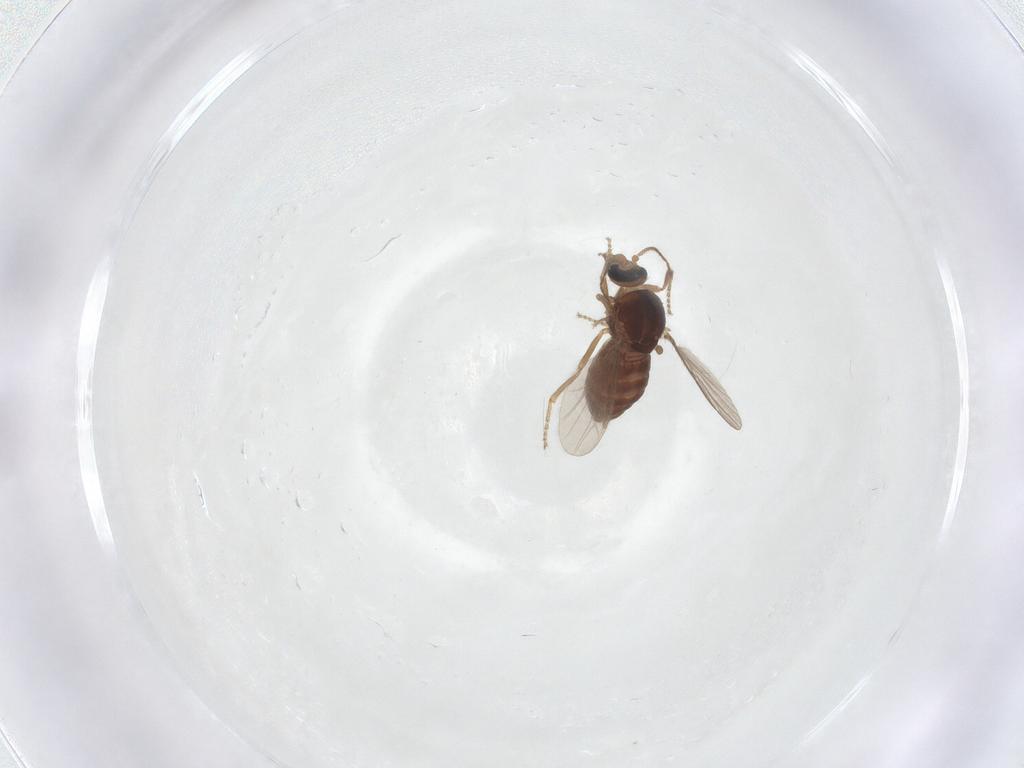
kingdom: Animalia
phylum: Arthropoda
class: Insecta
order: Diptera
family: Ceratopogonidae
